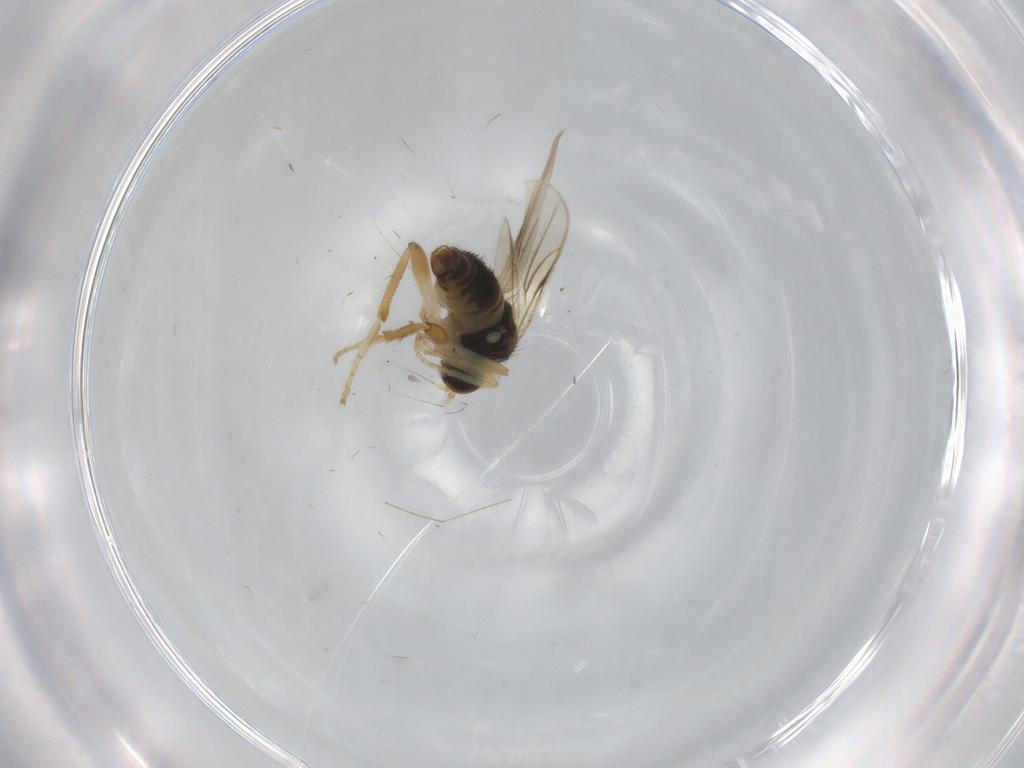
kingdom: Animalia
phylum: Arthropoda
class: Insecta
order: Diptera
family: Hybotidae
